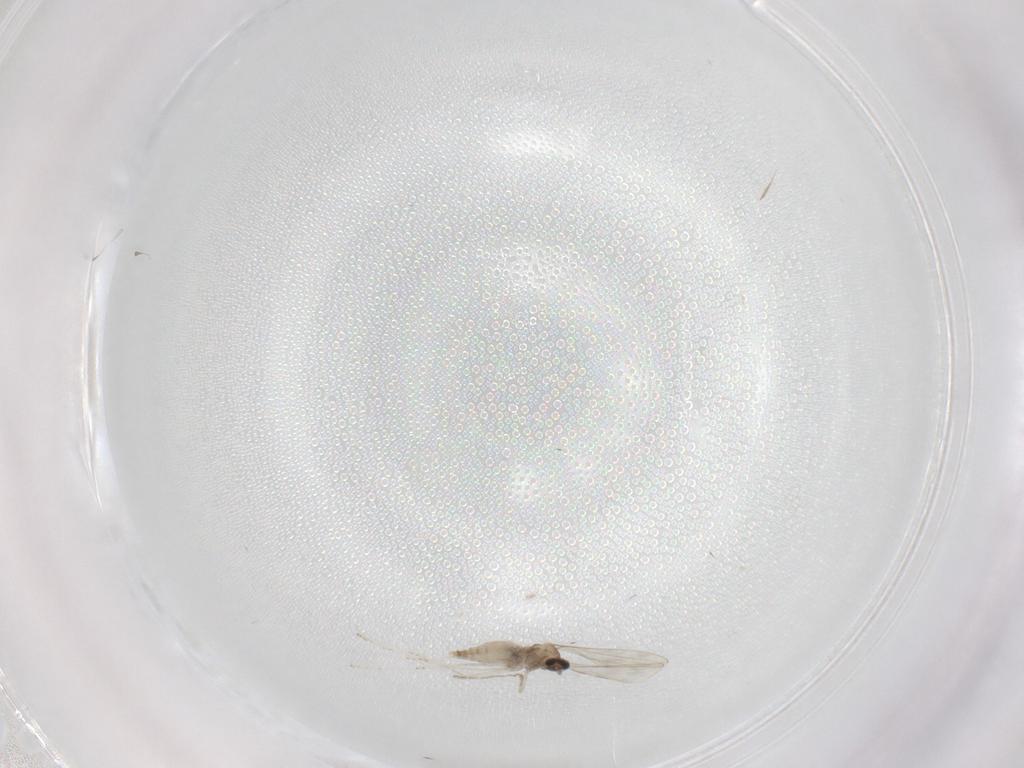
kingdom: Animalia
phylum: Arthropoda
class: Insecta
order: Diptera
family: Cecidomyiidae
